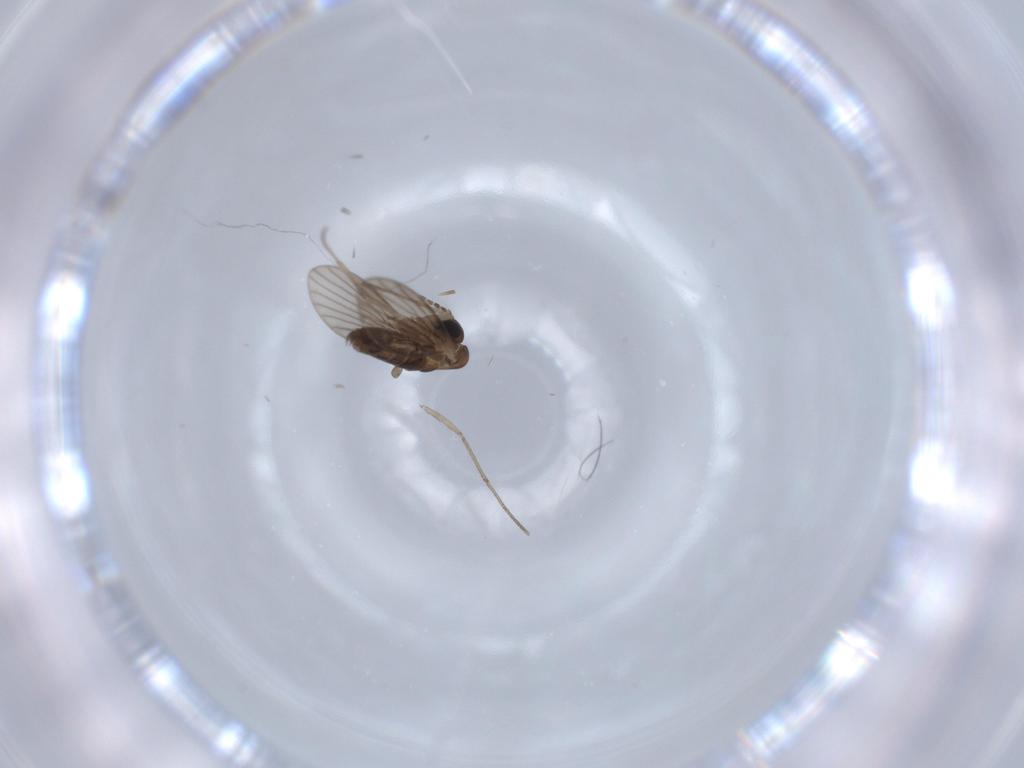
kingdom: Animalia
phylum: Arthropoda
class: Insecta
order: Diptera
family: Psychodidae
